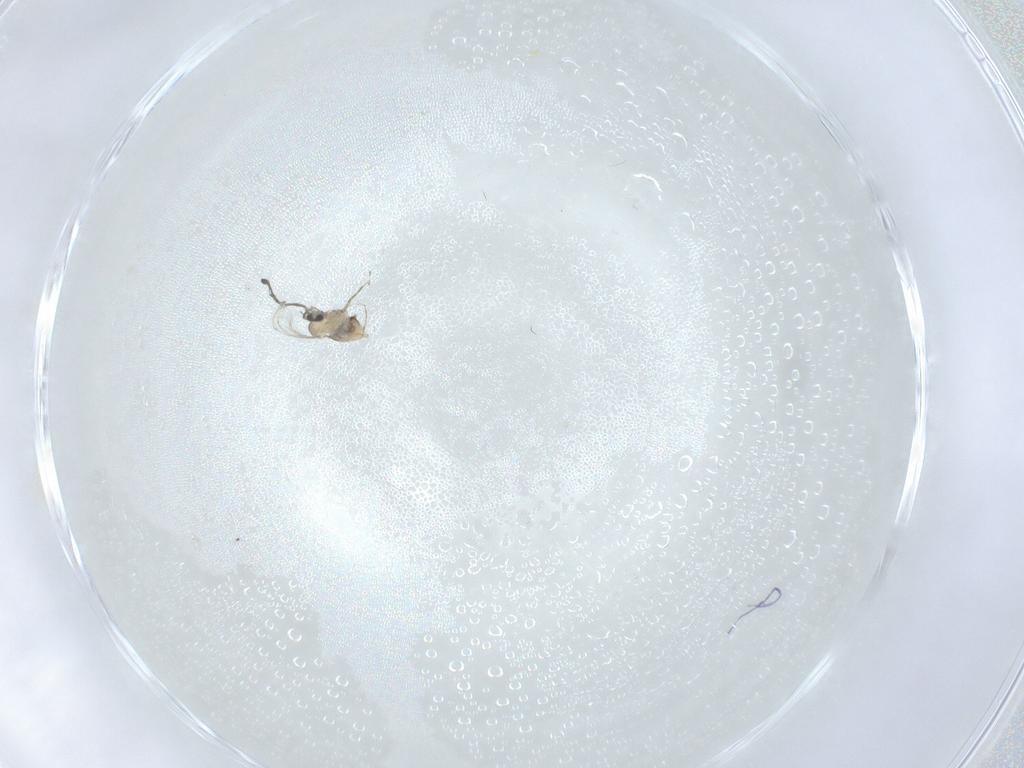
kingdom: Animalia
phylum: Arthropoda
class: Insecta
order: Diptera
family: Cecidomyiidae
